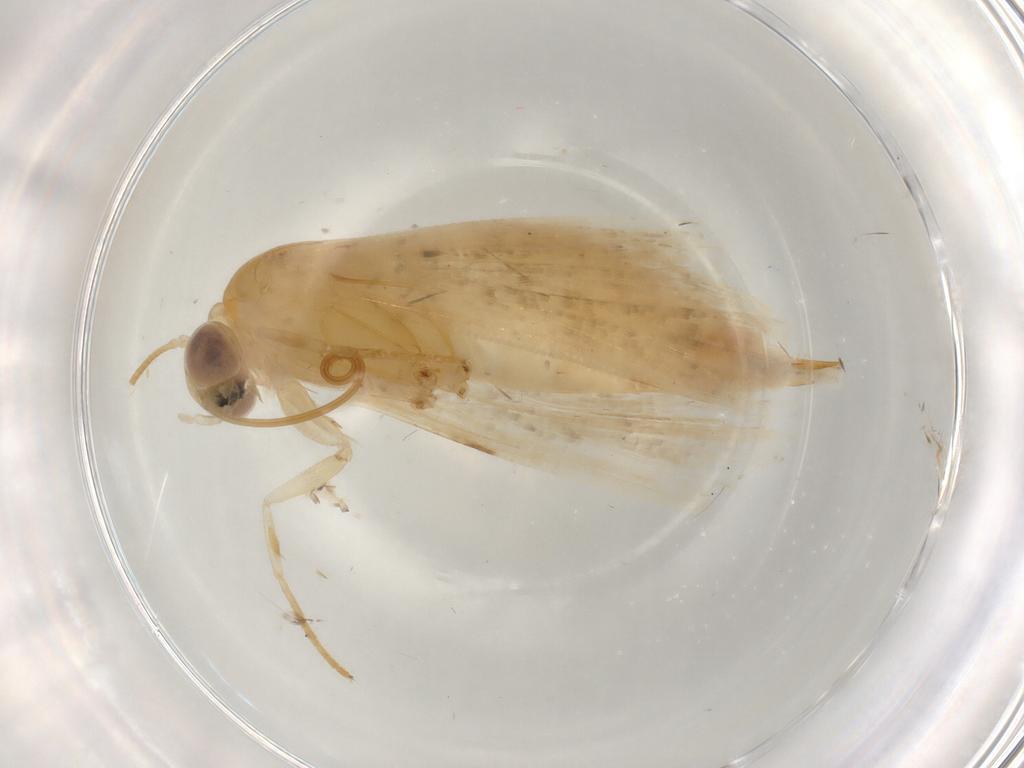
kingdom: Animalia
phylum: Arthropoda
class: Insecta
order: Lepidoptera
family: Noctuidae
